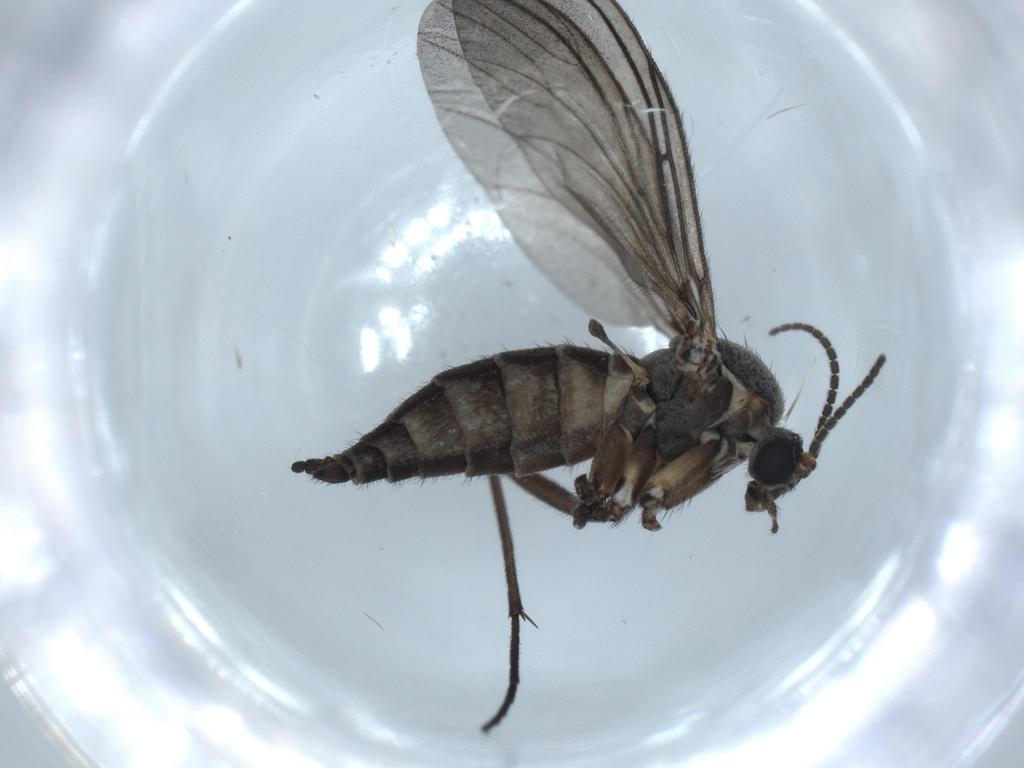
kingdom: Animalia
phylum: Arthropoda
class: Insecta
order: Diptera
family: Sciaridae
